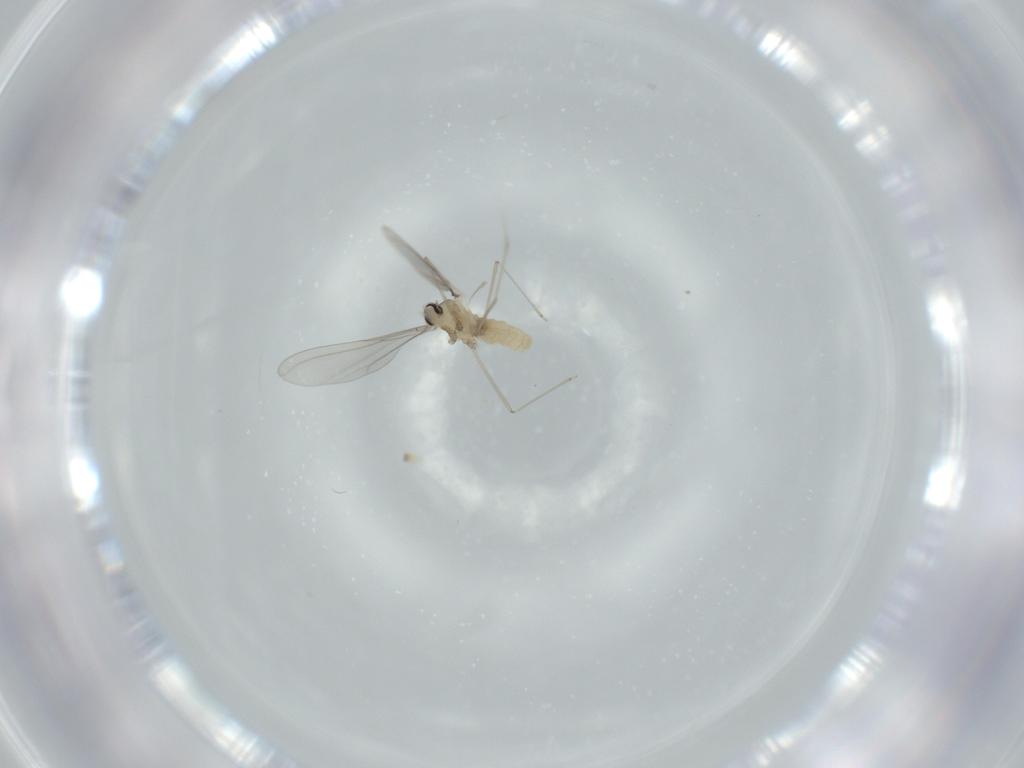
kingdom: Animalia
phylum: Arthropoda
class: Insecta
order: Diptera
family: Cecidomyiidae
